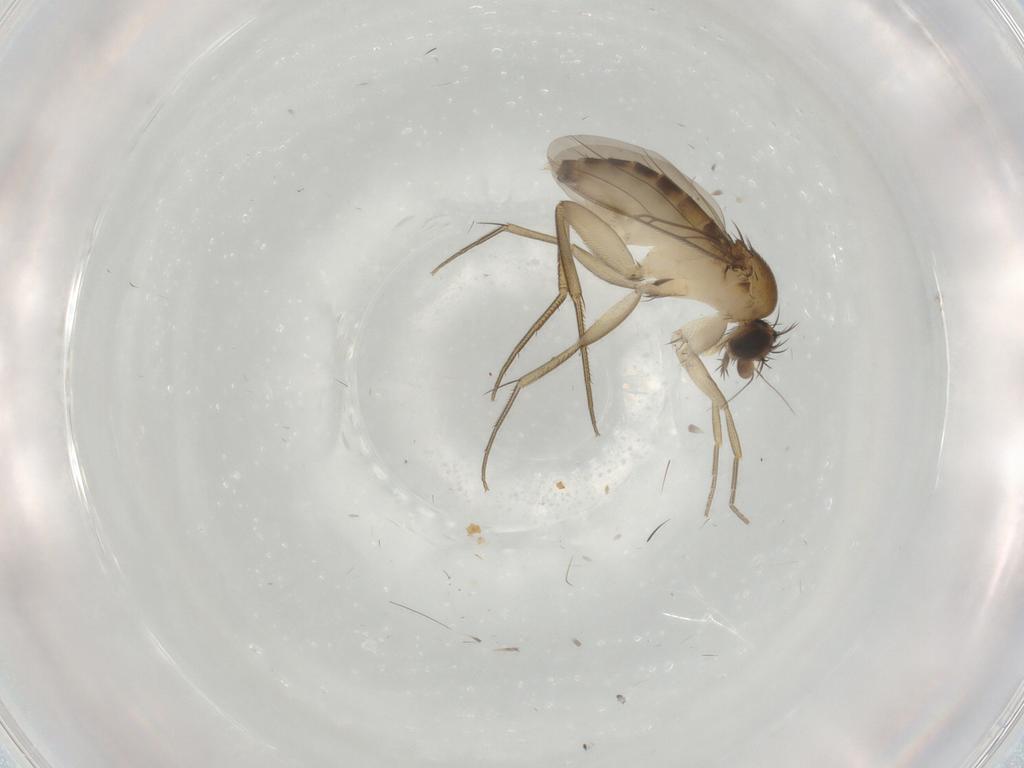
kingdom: Animalia
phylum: Arthropoda
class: Insecta
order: Diptera
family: Phoridae
